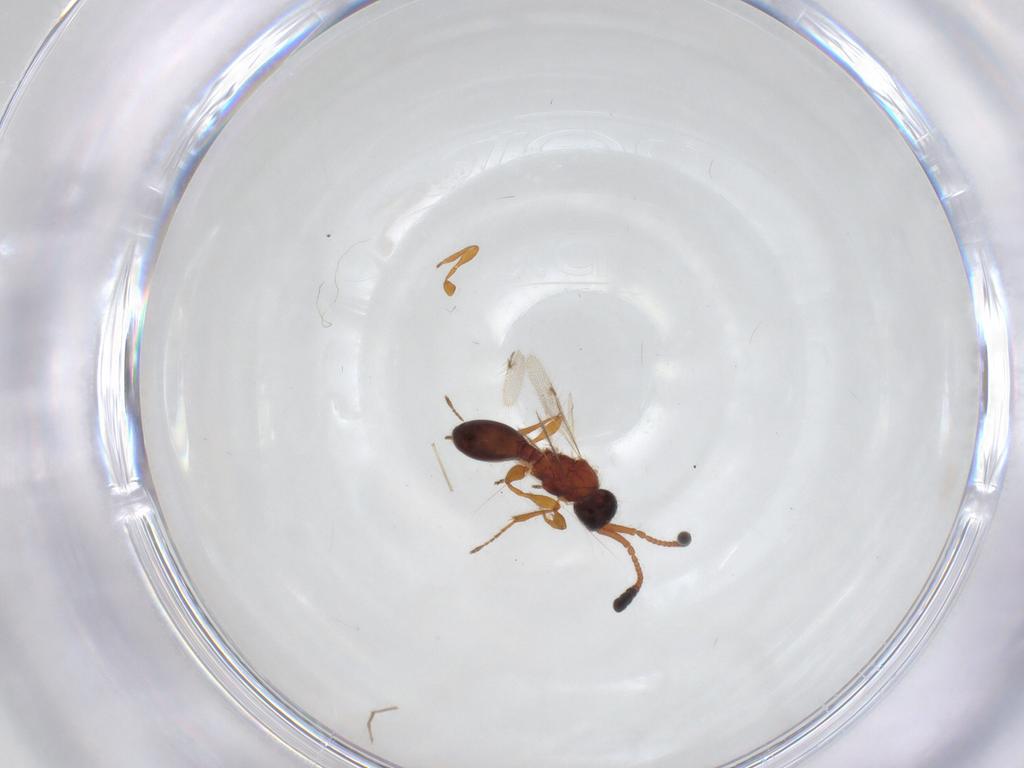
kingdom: Animalia
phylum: Arthropoda
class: Insecta
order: Hymenoptera
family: Diapriidae
